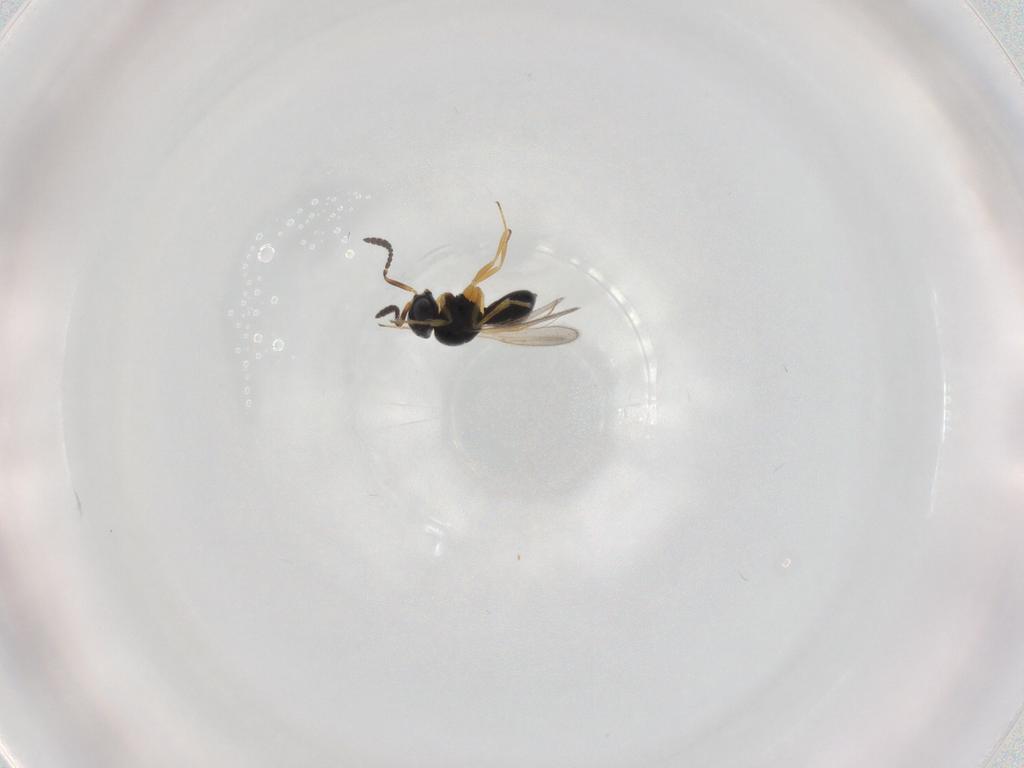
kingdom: Animalia
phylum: Arthropoda
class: Insecta
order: Hymenoptera
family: Scelionidae
